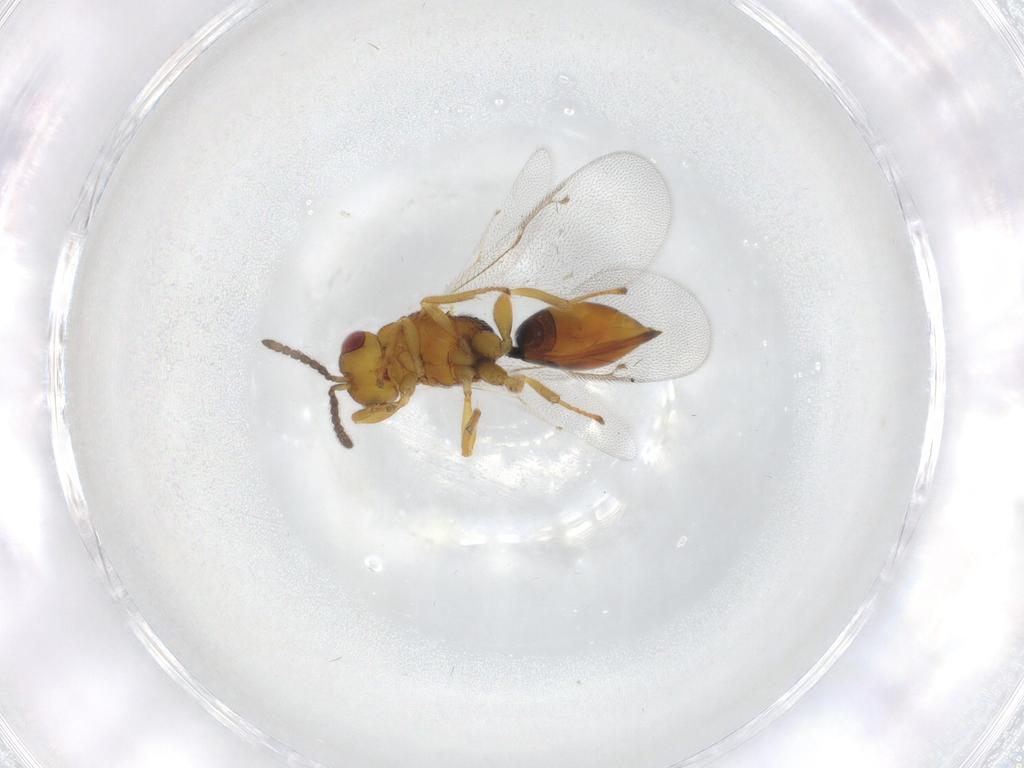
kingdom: Animalia
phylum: Arthropoda
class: Insecta
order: Hymenoptera
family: Eurytomidae
